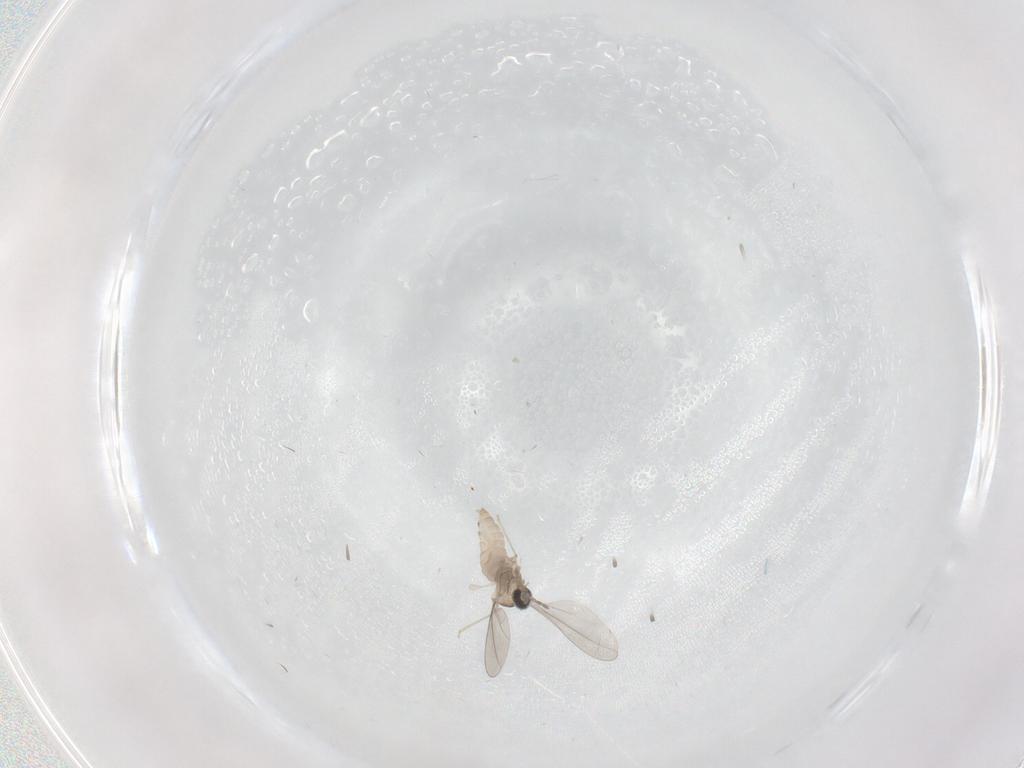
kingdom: Animalia
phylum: Arthropoda
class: Insecta
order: Diptera
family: Cecidomyiidae
